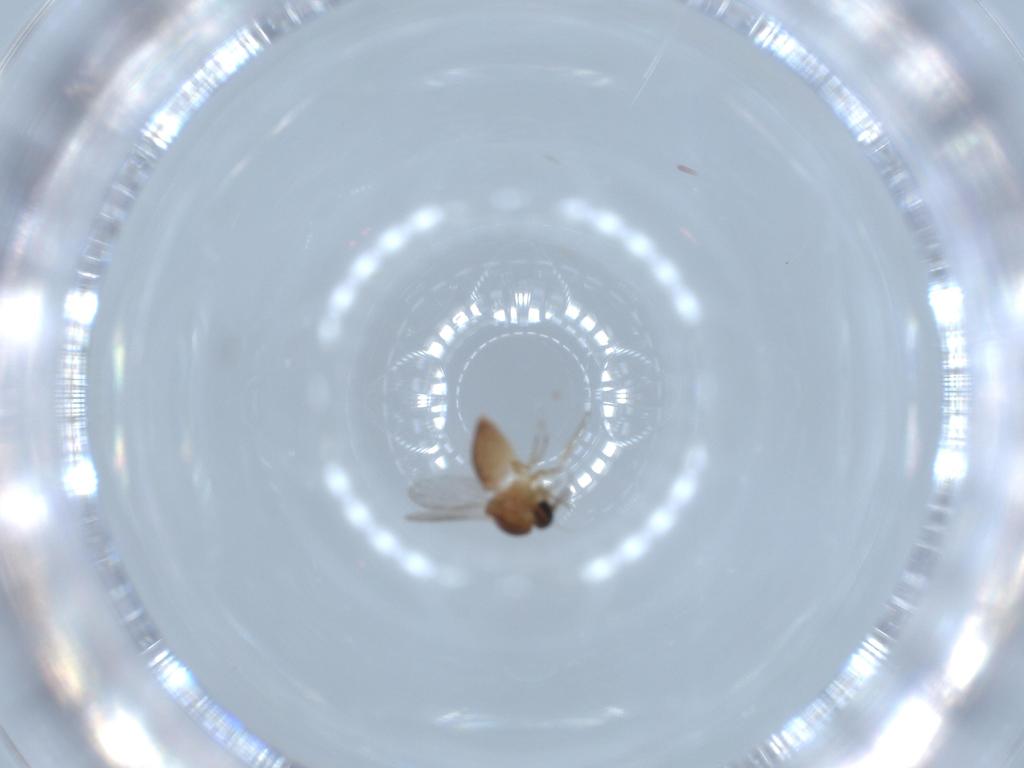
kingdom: Animalia
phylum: Arthropoda
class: Insecta
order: Diptera
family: Ceratopogonidae
